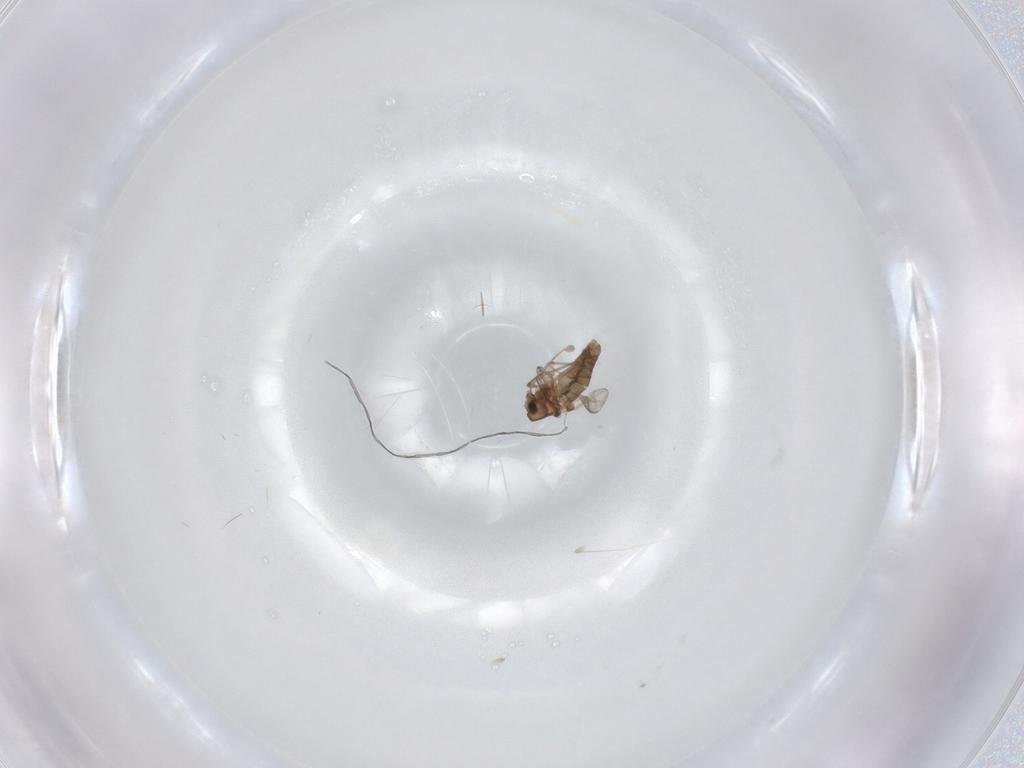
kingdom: Animalia
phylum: Arthropoda
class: Insecta
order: Diptera
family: Chironomidae
